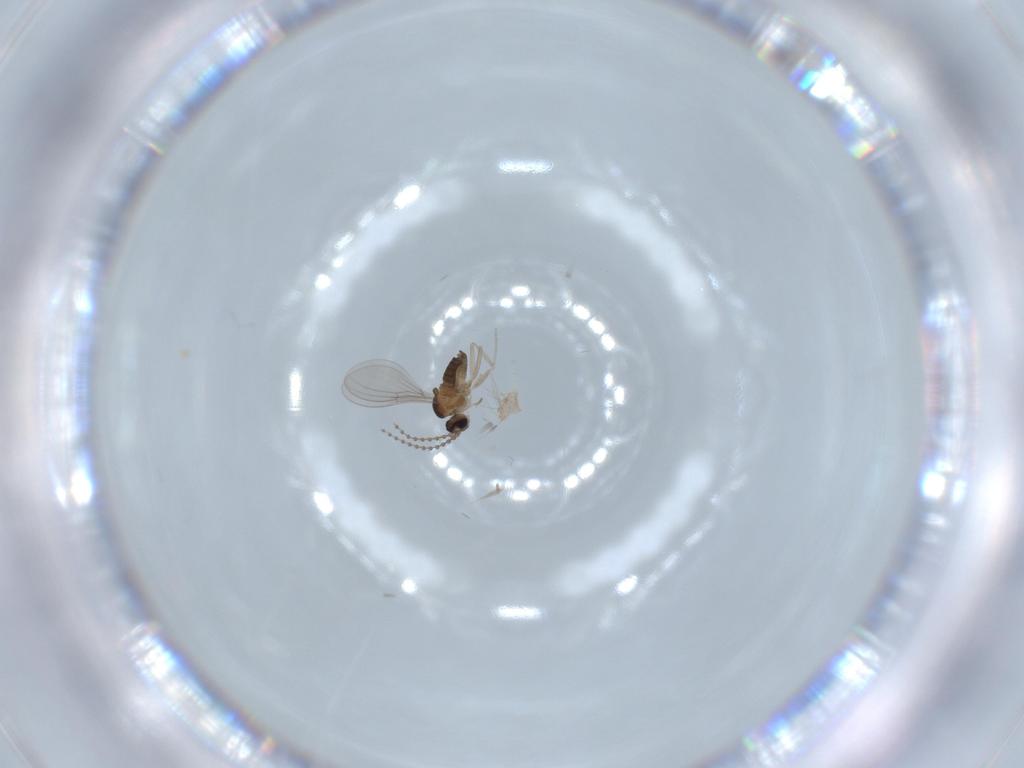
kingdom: Animalia
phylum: Arthropoda
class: Insecta
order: Diptera
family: Cecidomyiidae
